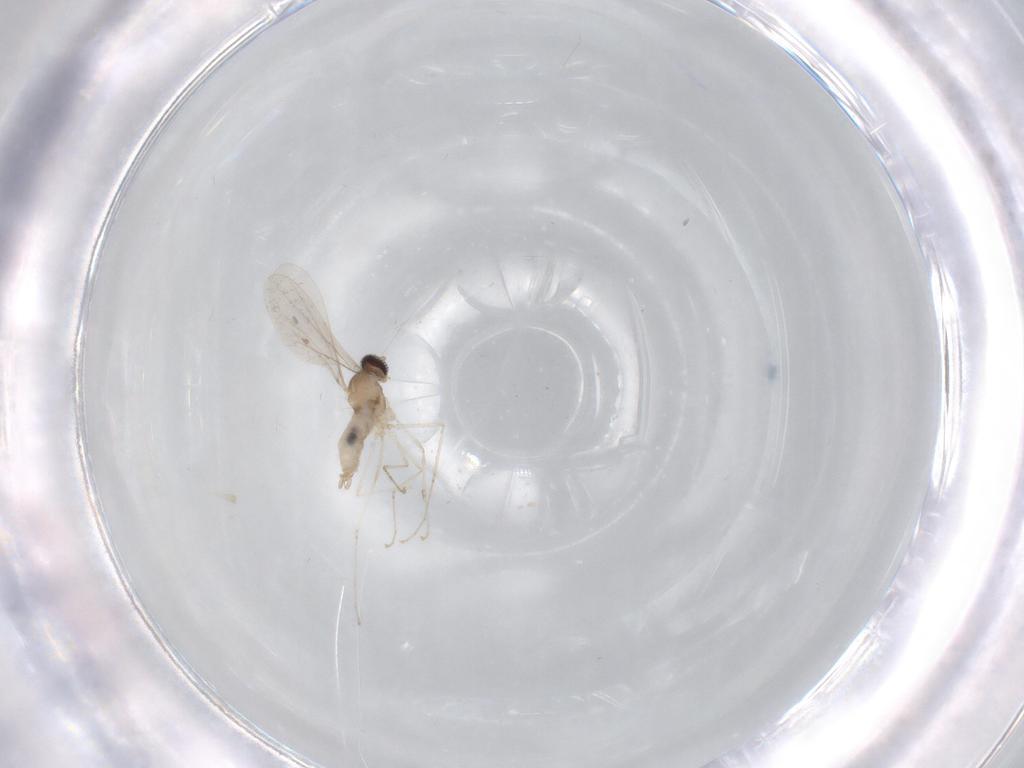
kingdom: Animalia
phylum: Arthropoda
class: Insecta
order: Diptera
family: Cecidomyiidae
